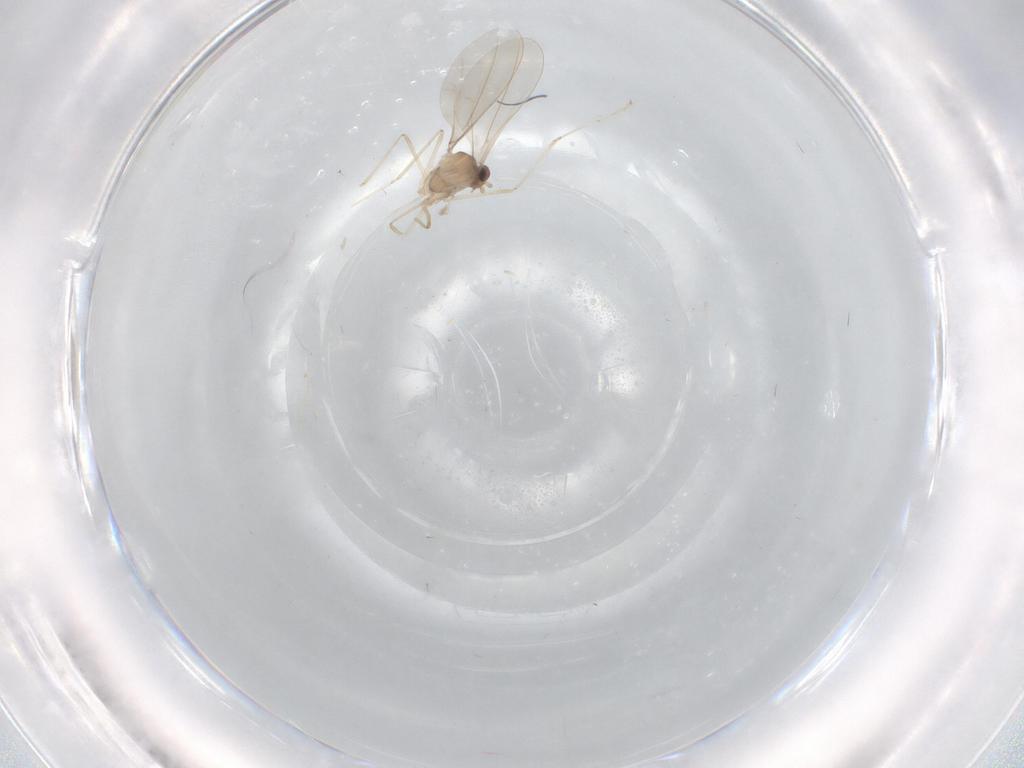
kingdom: Animalia
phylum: Arthropoda
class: Insecta
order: Diptera
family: Cecidomyiidae
